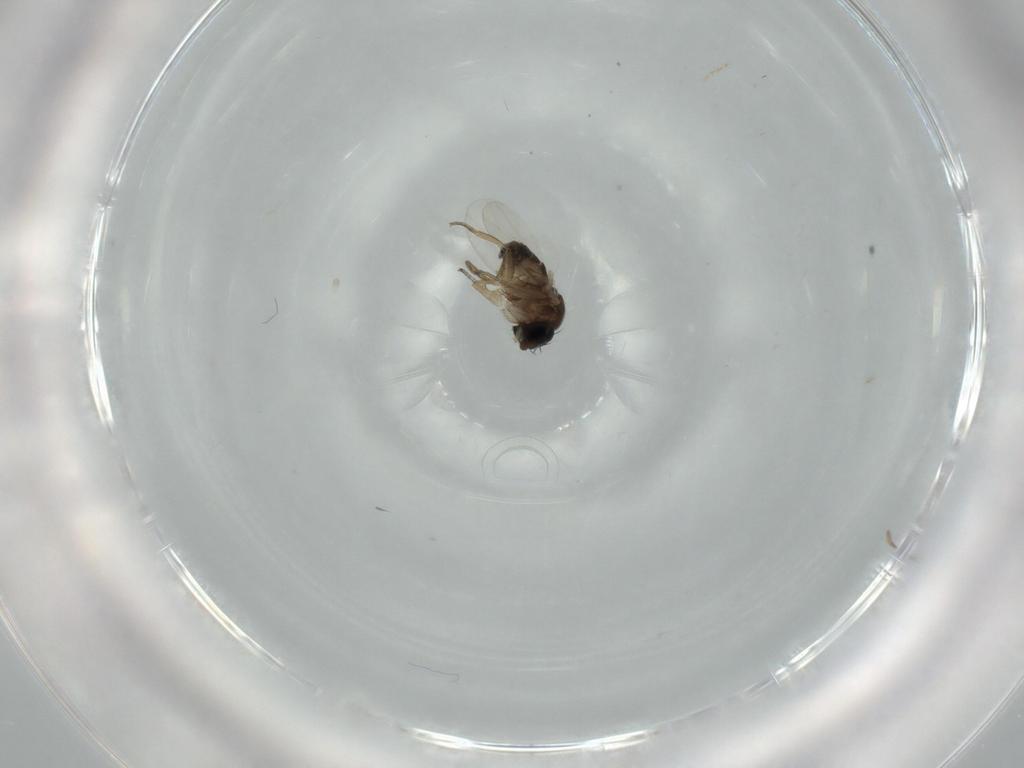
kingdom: Animalia
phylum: Arthropoda
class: Insecta
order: Diptera
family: Phoridae
